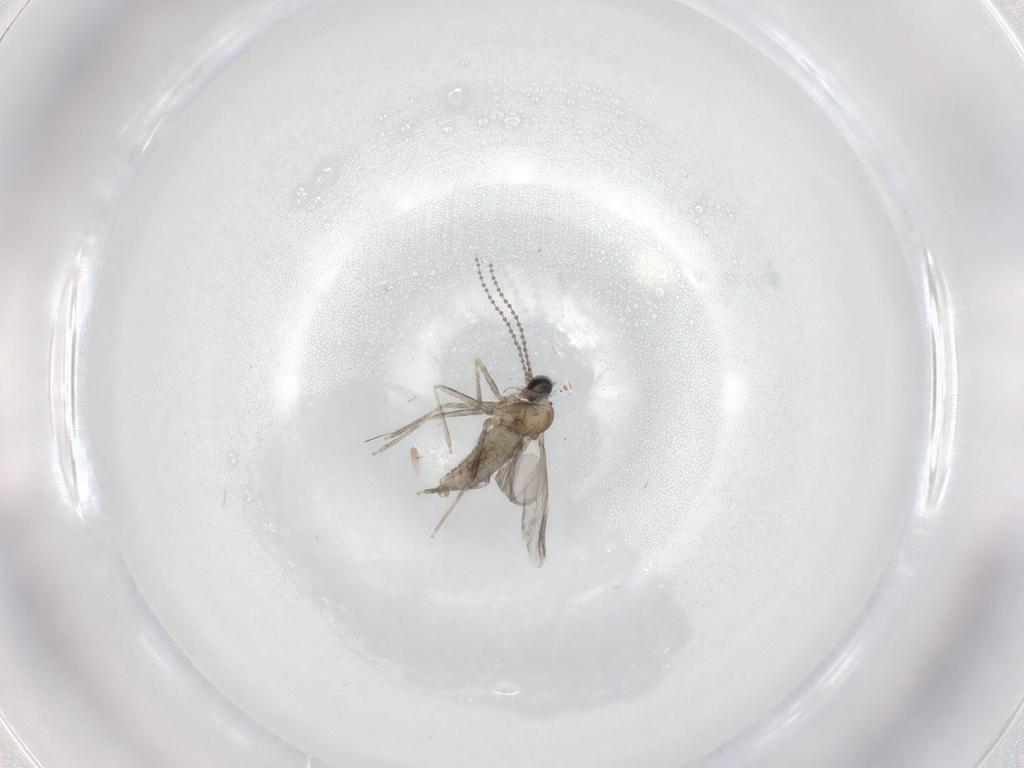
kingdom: Animalia
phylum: Arthropoda
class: Insecta
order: Diptera
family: Cecidomyiidae
